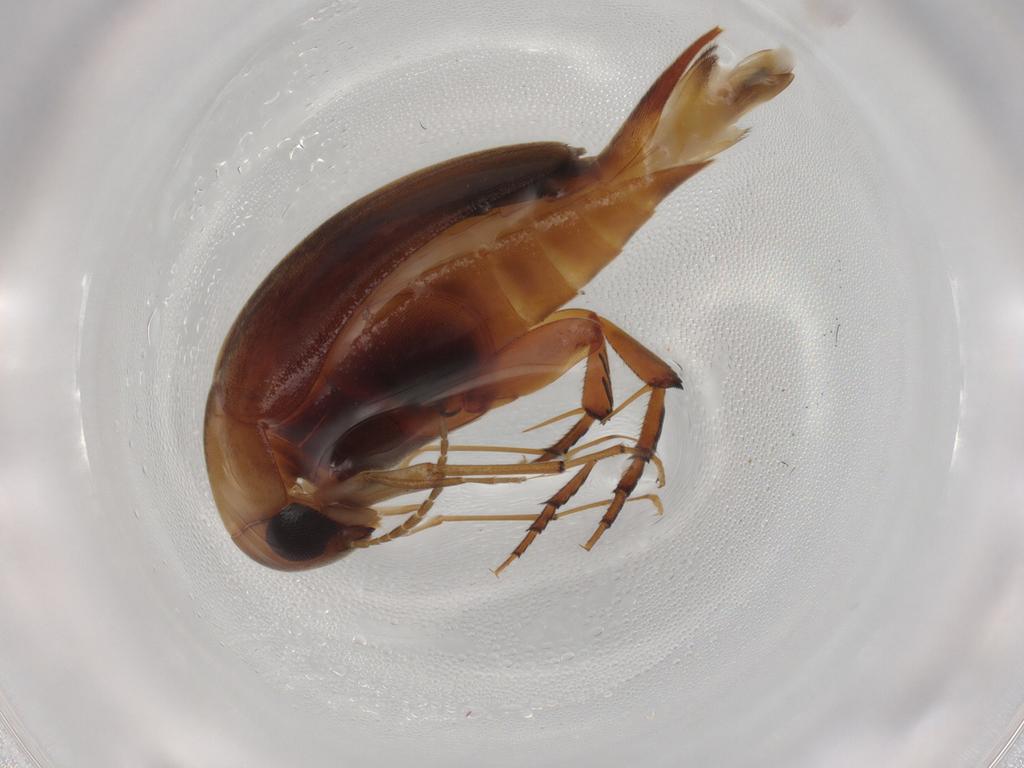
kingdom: Animalia
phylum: Arthropoda
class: Insecta
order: Coleoptera
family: Mordellidae
